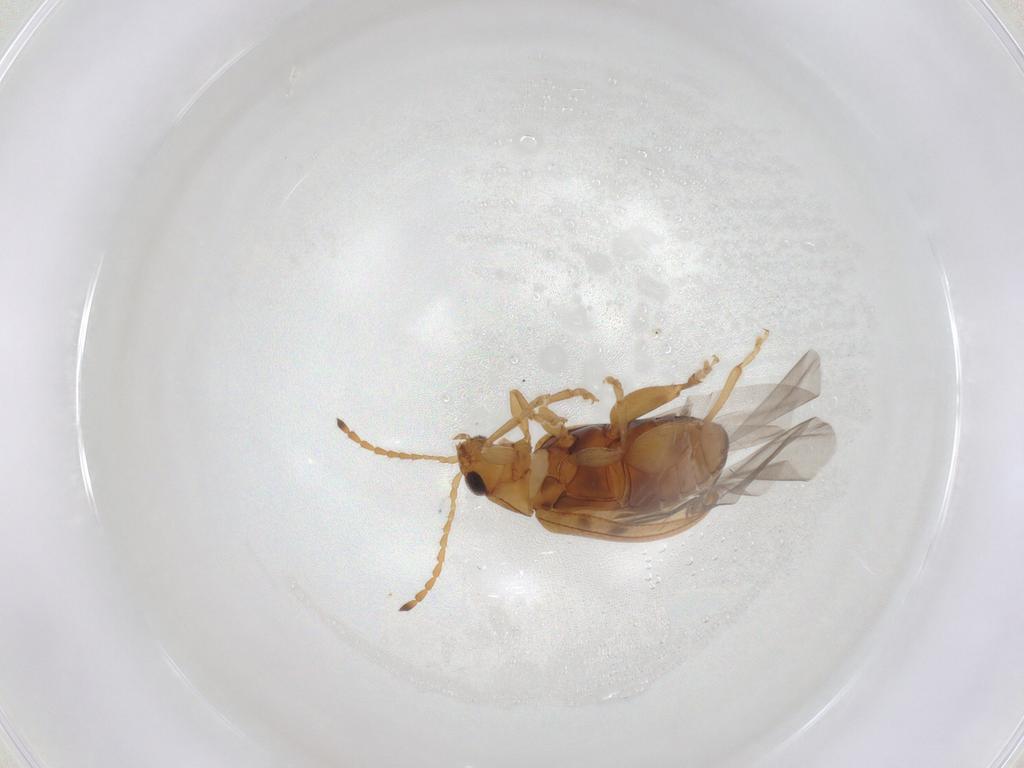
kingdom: Animalia
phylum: Arthropoda
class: Insecta
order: Coleoptera
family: Chrysomelidae
